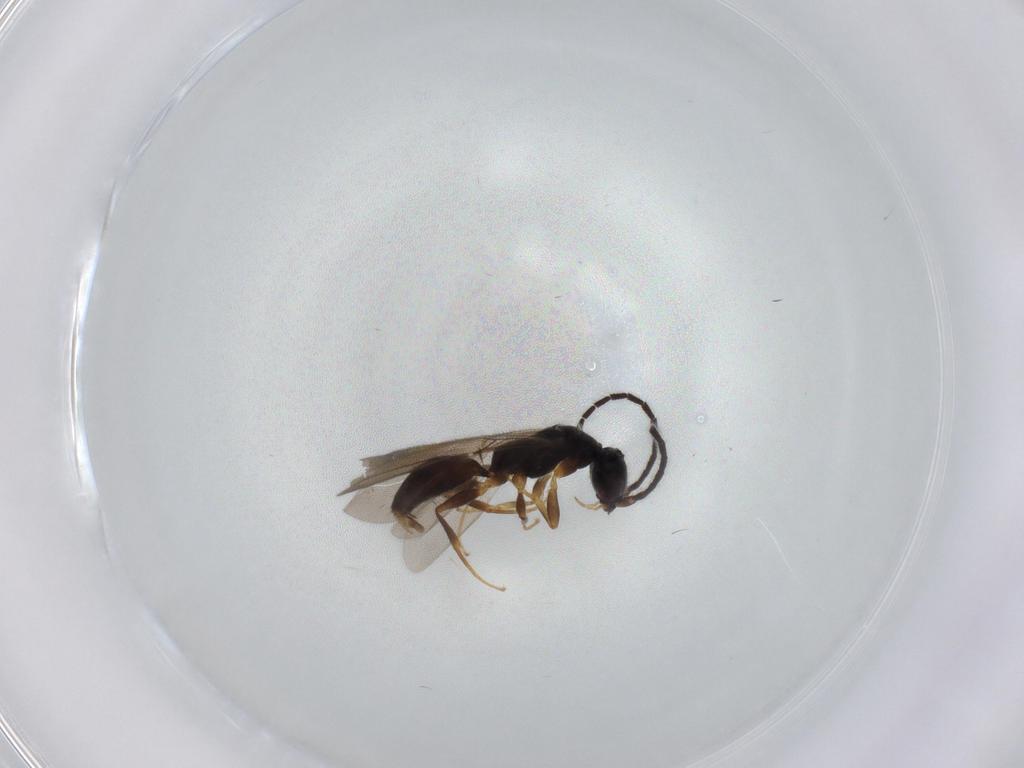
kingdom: Animalia
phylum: Arthropoda
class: Insecta
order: Hymenoptera
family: Bethylidae
